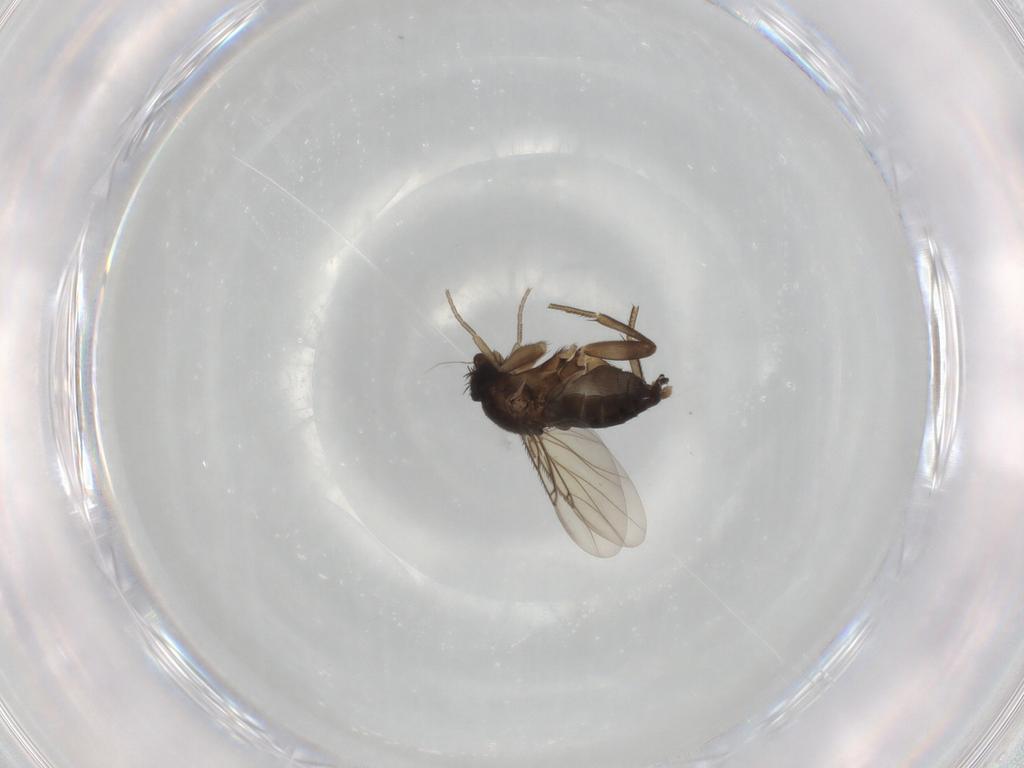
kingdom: Animalia
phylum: Arthropoda
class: Insecta
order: Diptera
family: Phoridae
